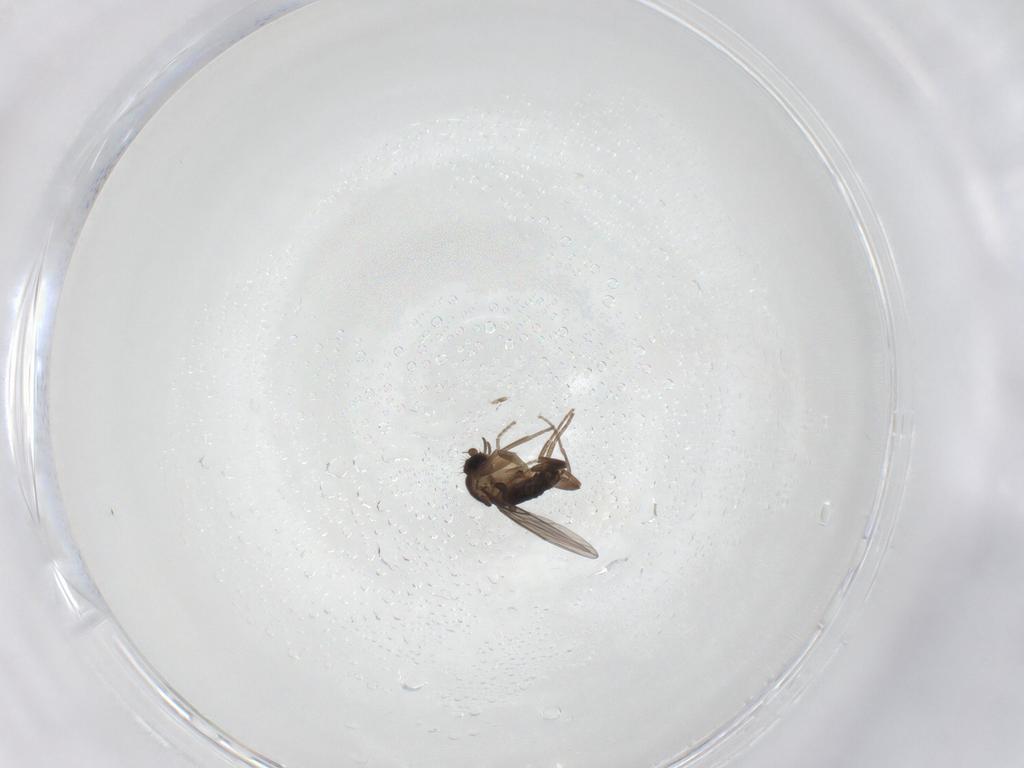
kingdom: Animalia
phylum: Arthropoda
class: Insecta
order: Diptera
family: Phoridae
